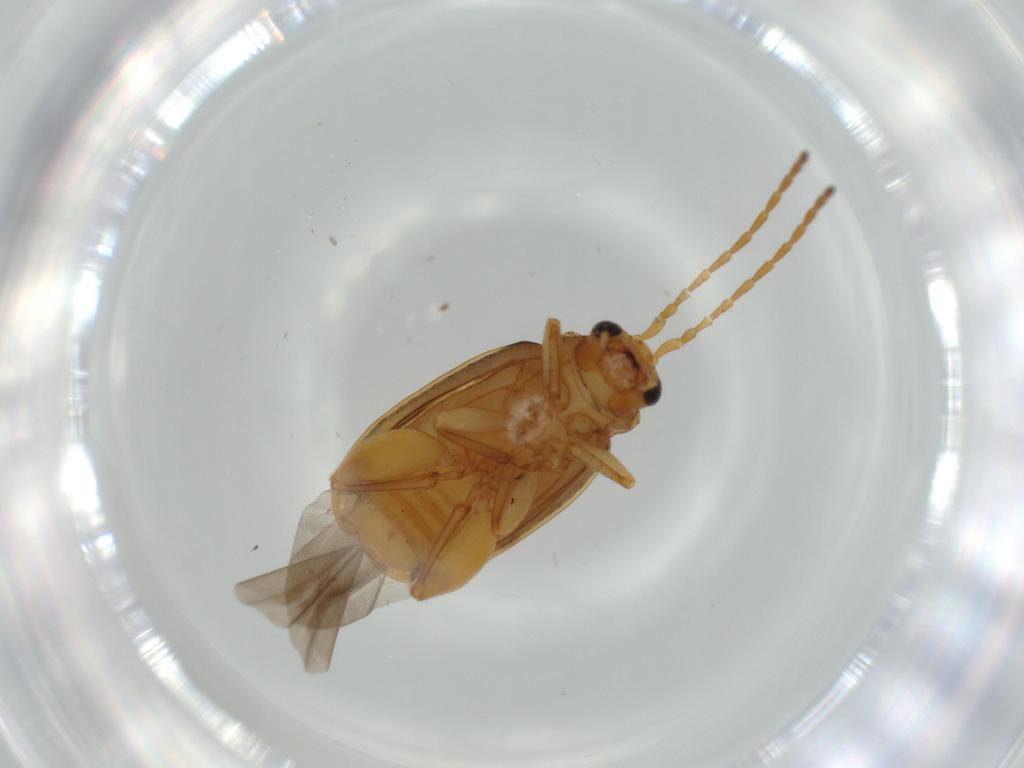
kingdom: Animalia
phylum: Arthropoda
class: Insecta
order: Coleoptera
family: Chrysomelidae
